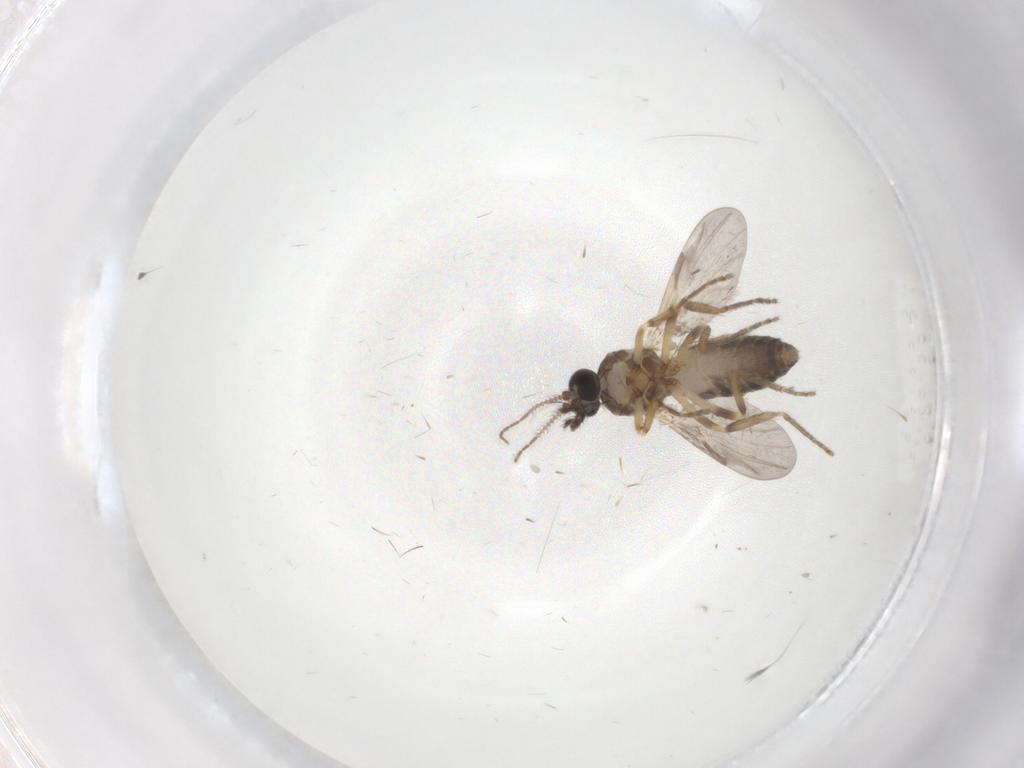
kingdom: Animalia
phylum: Arthropoda
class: Insecta
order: Diptera
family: Ceratopogonidae
